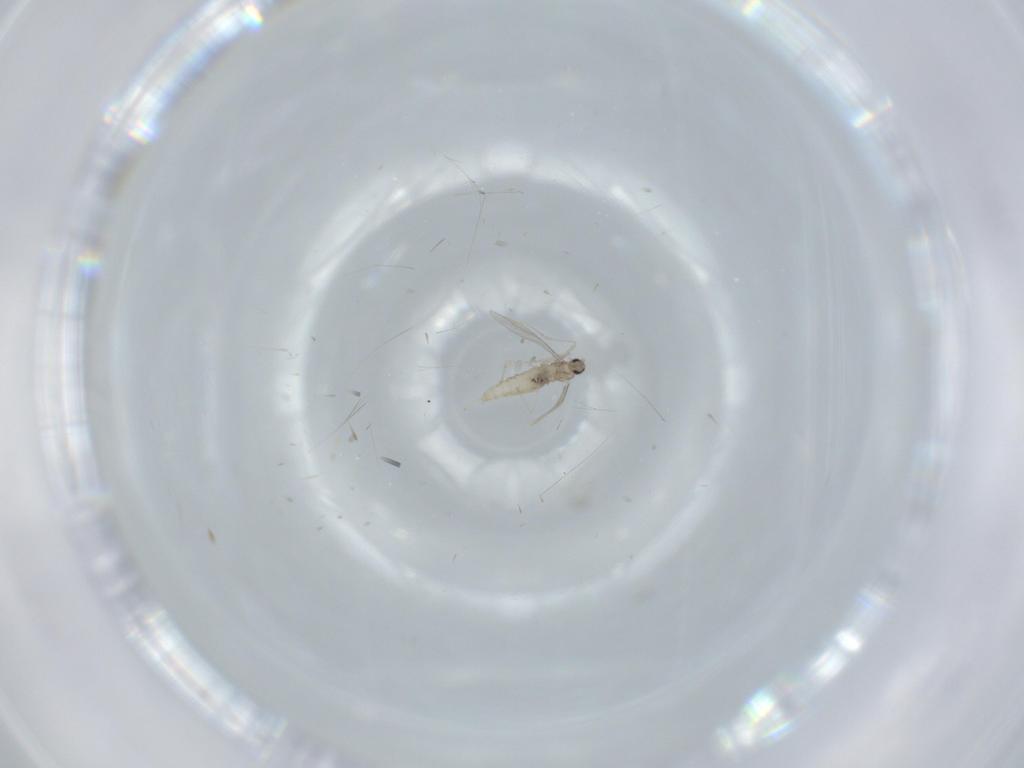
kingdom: Animalia
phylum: Arthropoda
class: Insecta
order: Diptera
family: Cecidomyiidae
